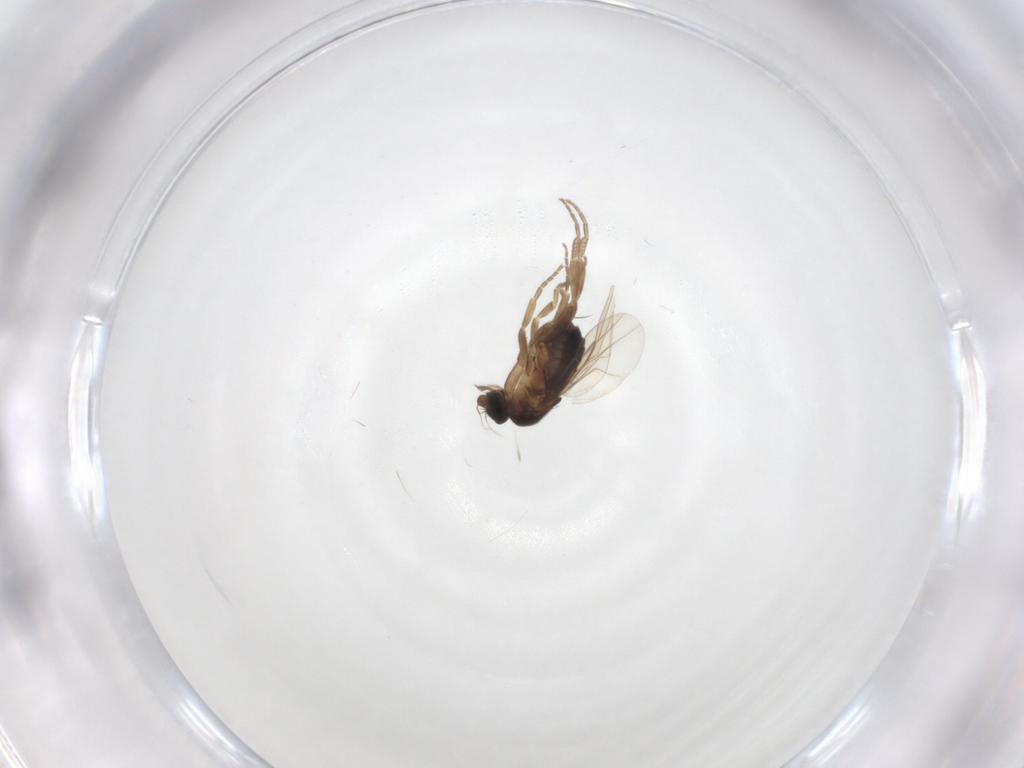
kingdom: Animalia
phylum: Arthropoda
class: Insecta
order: Diptera
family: Phoridae
